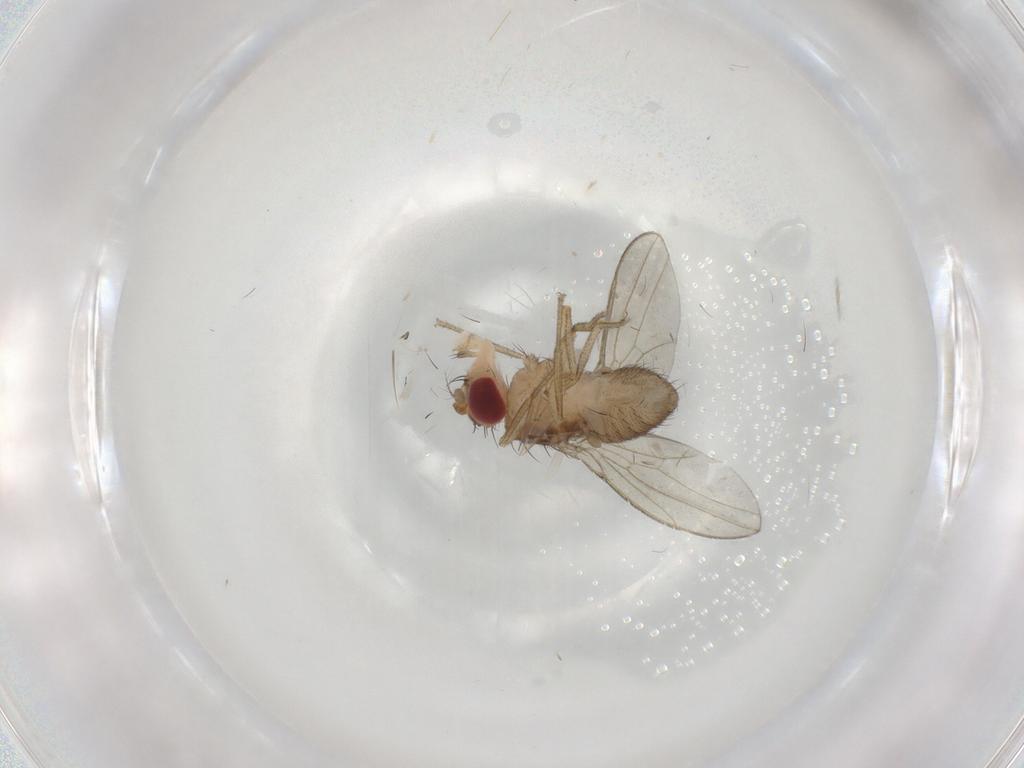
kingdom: Animalia
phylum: Arthropoda
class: Insecta
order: Diptera
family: Drosophilidae
